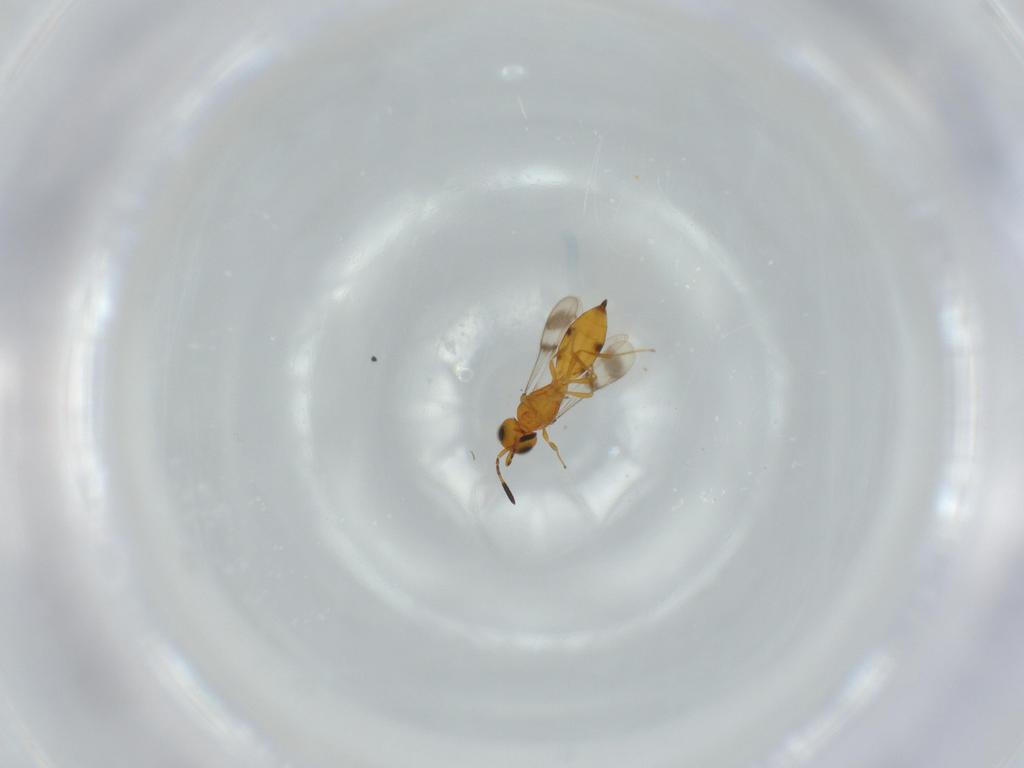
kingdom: Animalia
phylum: Arthropoda
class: Insecta
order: Hymenoptera
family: Scelionidae
